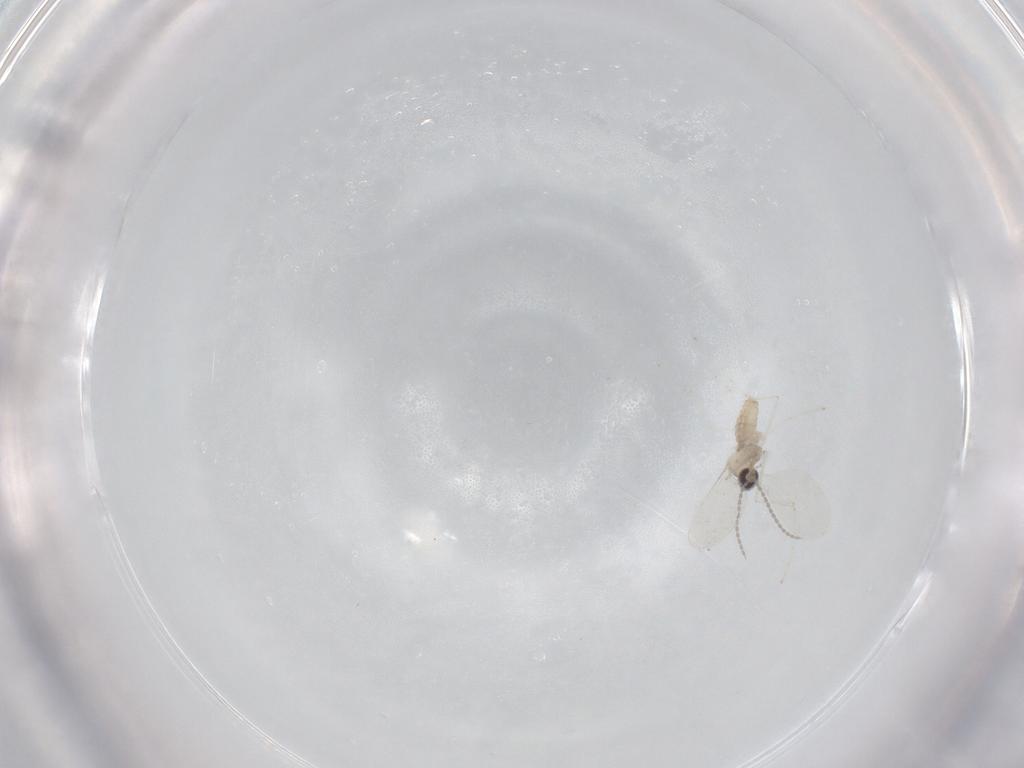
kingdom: Animalia
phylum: Arthropoda
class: Insecta
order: Diptera
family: Cecidomyiidae
